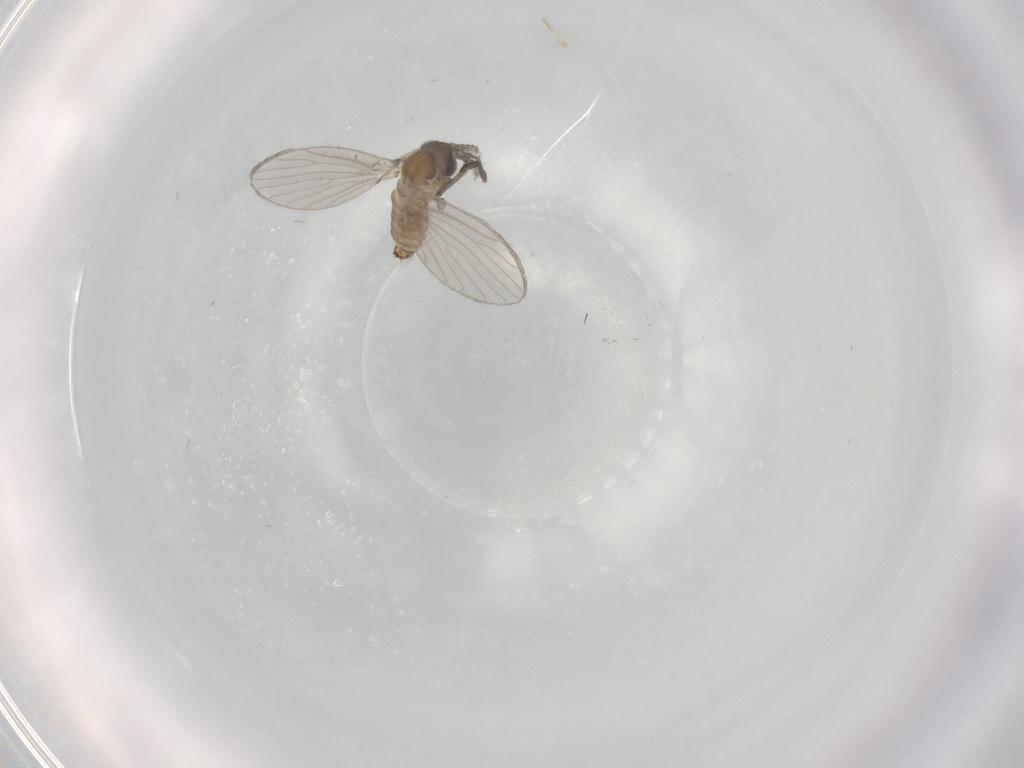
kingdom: Animalia
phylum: Arthropoda
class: Insecta
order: Diptera
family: Psychodidae
